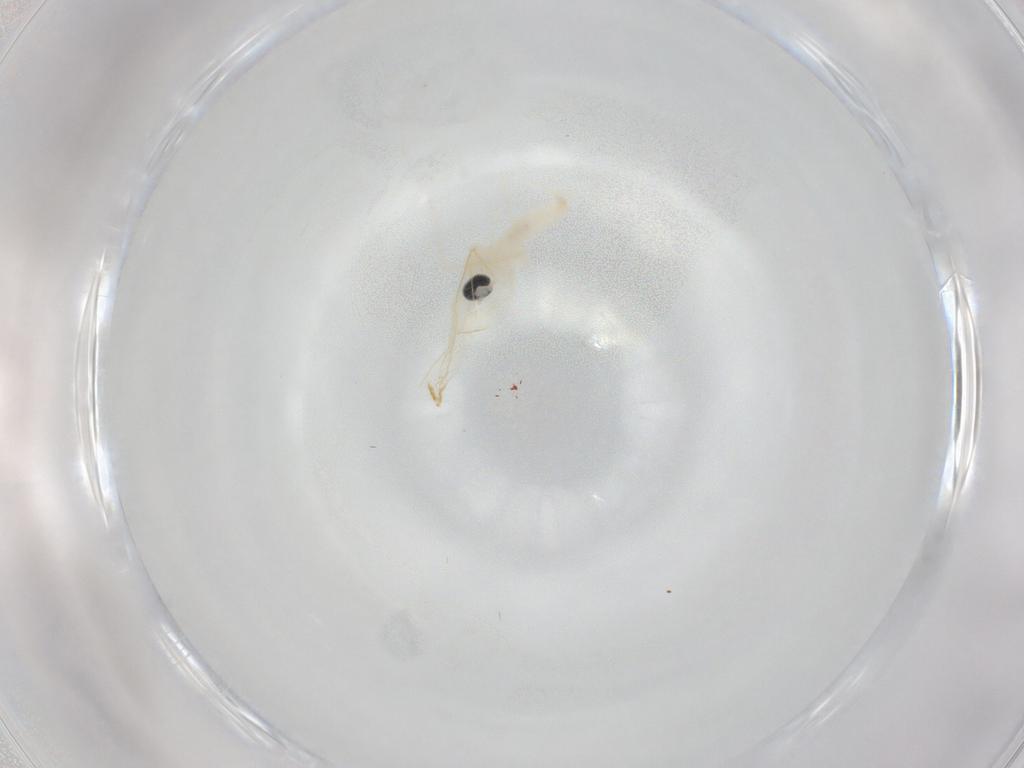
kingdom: Animalia
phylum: Arthropoda
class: Insecta
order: Diptera
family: Cecidomyiidae
